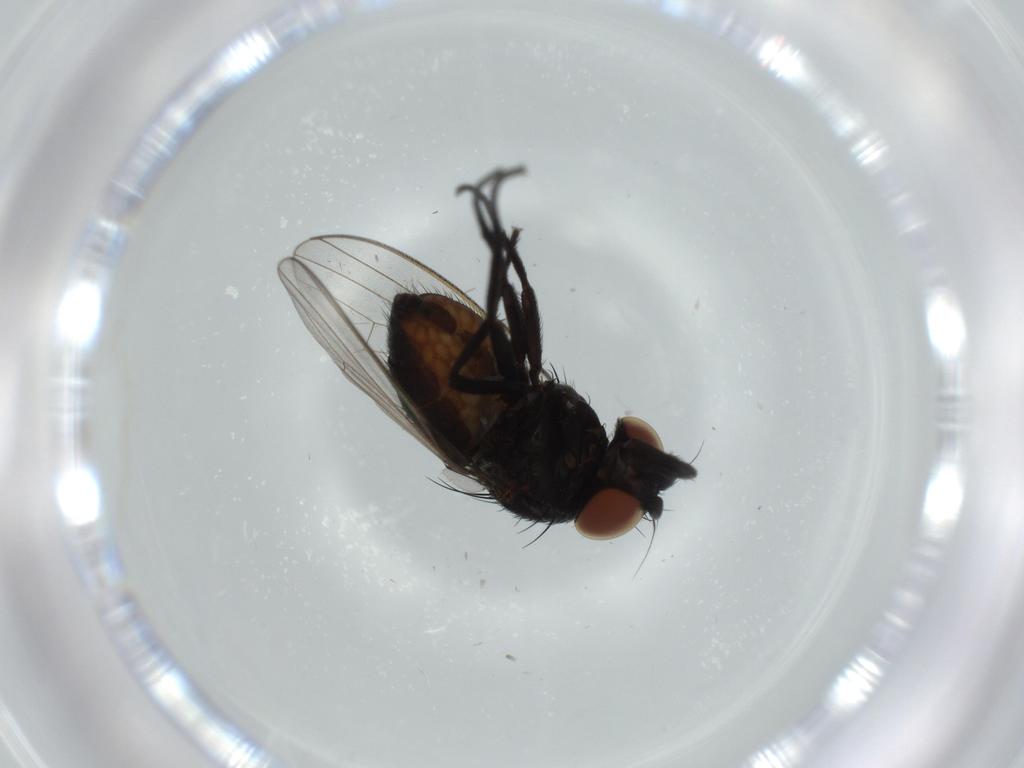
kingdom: Animalia
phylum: Arthropoda
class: Insecta
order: Diptera
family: Milichiidae
